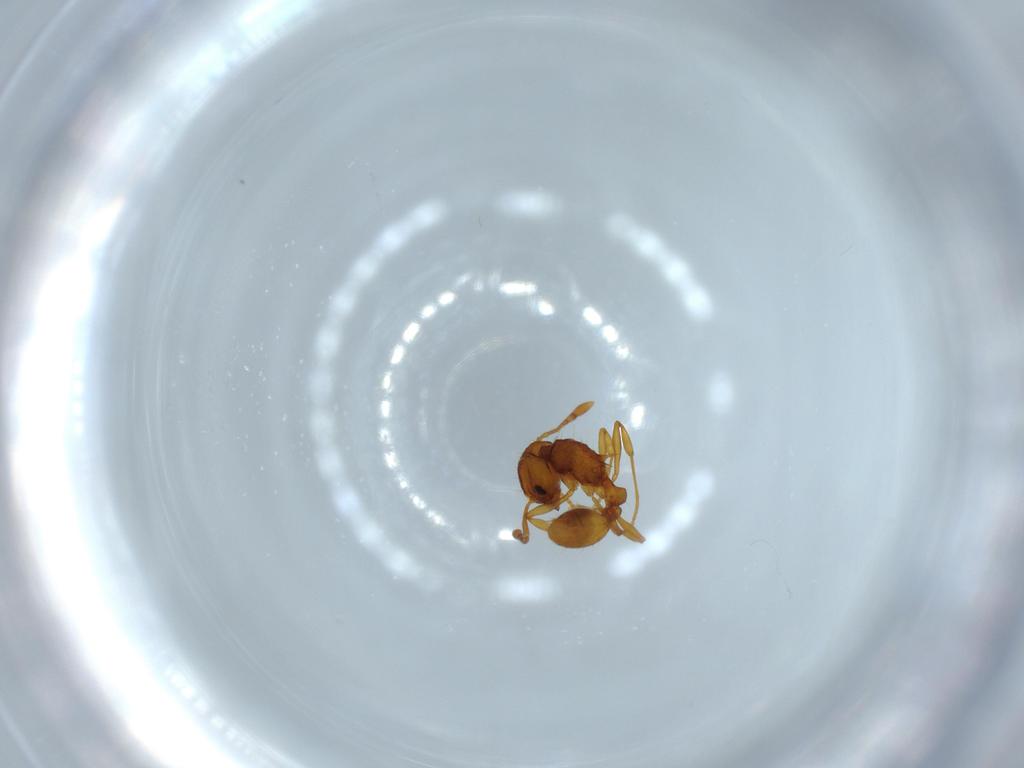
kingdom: Animalia
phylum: Arthropoda
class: Insecta
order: Hymenoptera
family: Formicidae
